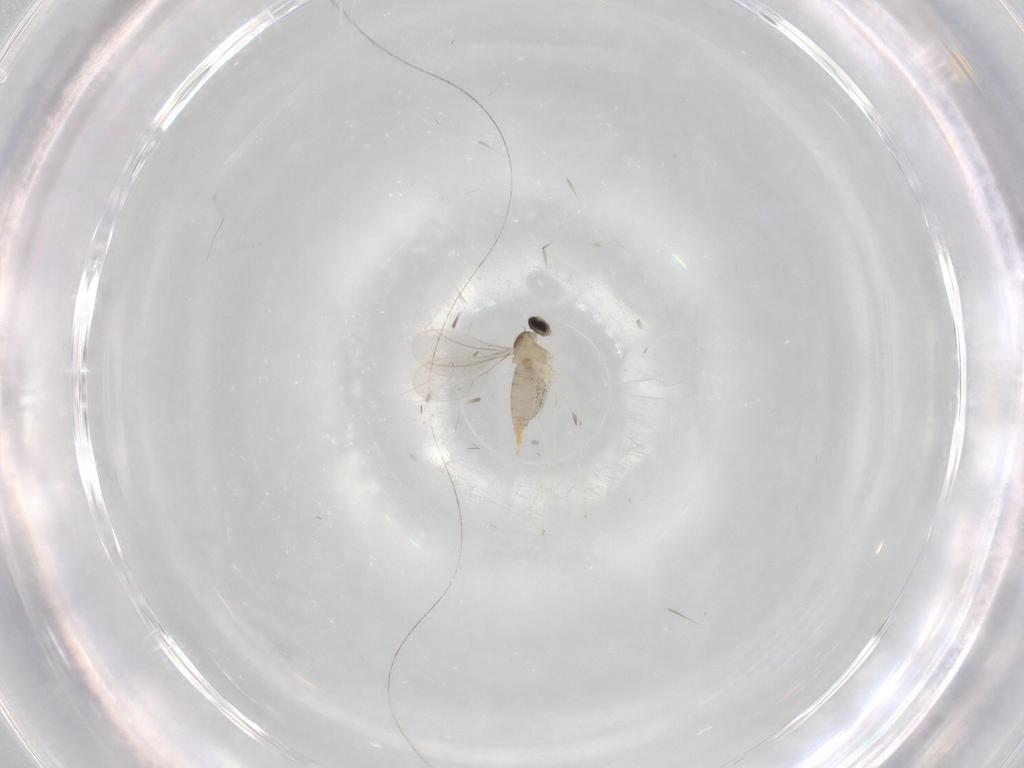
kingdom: Animalia
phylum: Arthropoda
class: Insecta
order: Diptera
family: Cecidomyiidae
